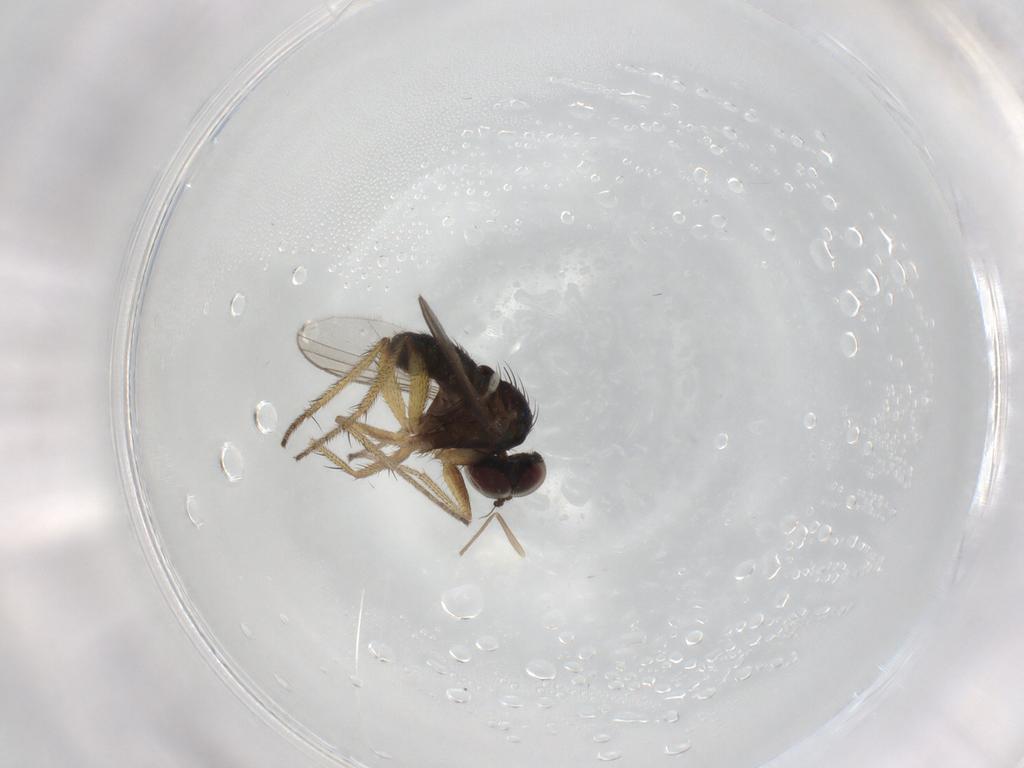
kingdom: Animalia
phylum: Arthropoda
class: Insecta
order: Diptera
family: Dolichopodidae
